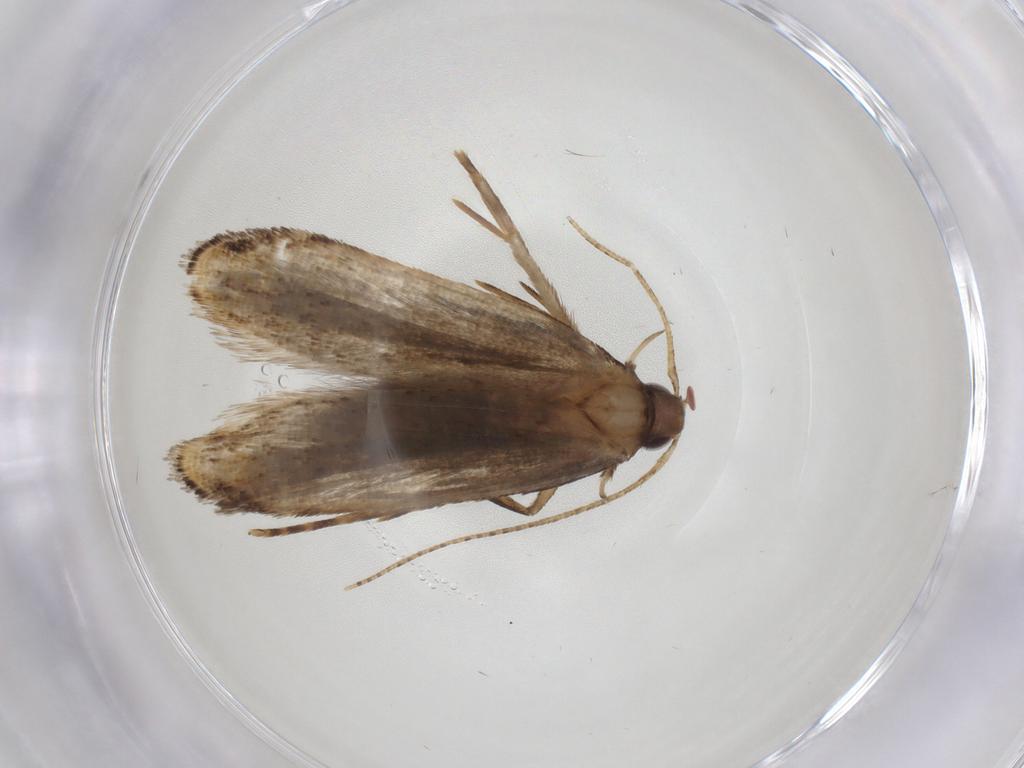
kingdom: Animalia
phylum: Arthropoda
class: Insecta
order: Lepidoptera
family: Gelechiidae
